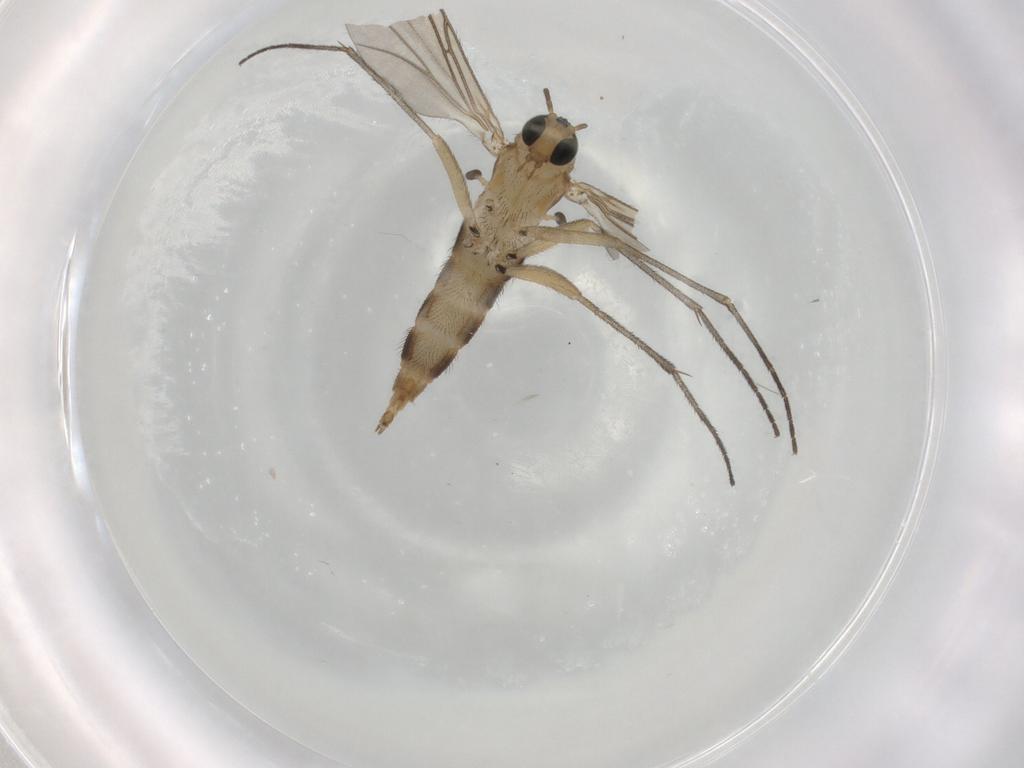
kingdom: Animalia
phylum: Arthropoda
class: Insecta
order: Diptera
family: Sciaridae
